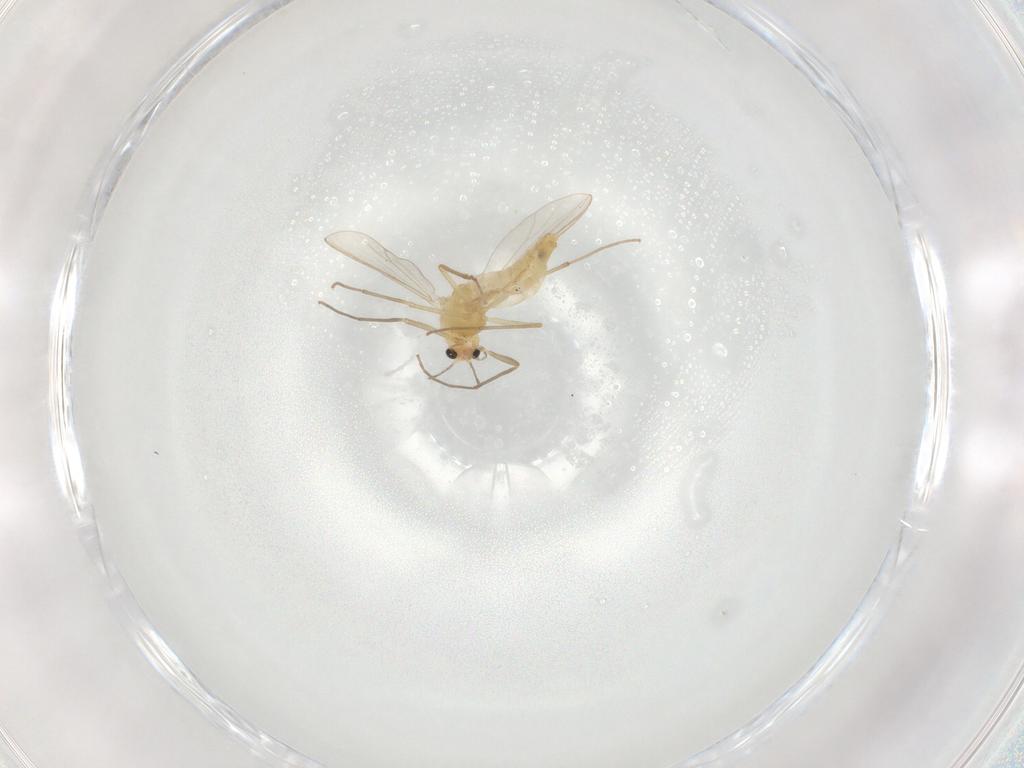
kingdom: Animalia
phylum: Arthropoda
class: Insecta
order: Diptera
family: Chironomidae
